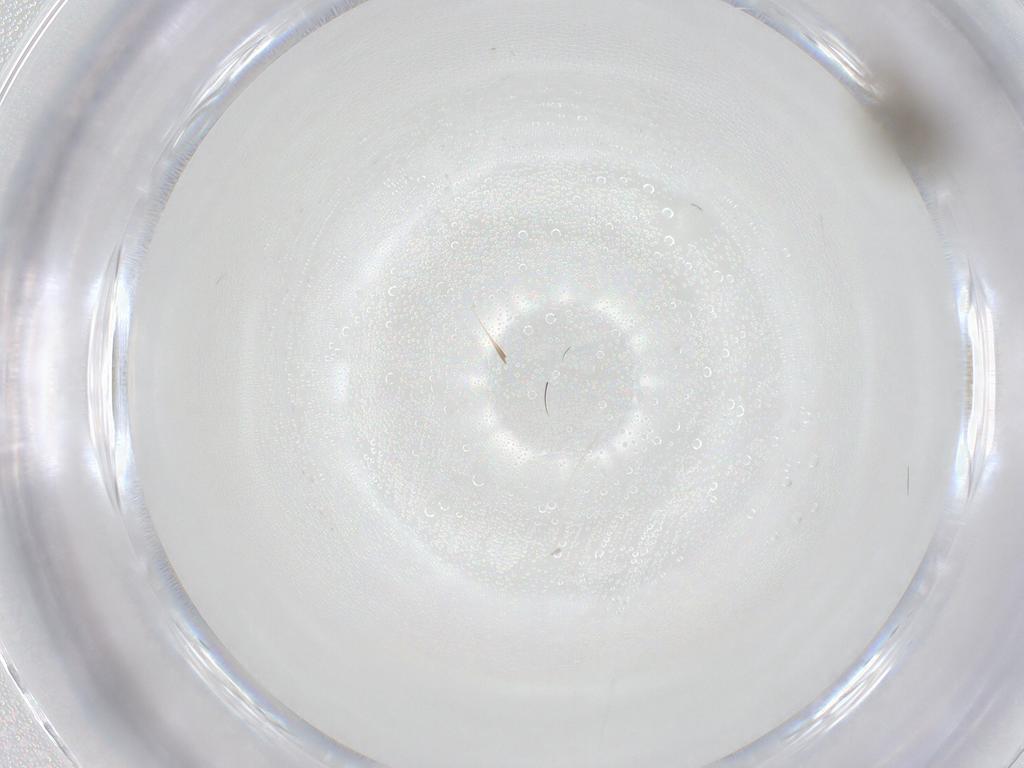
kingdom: Animalia
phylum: Arthropoda
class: Insecta
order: Diptera
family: Agromyzidae
